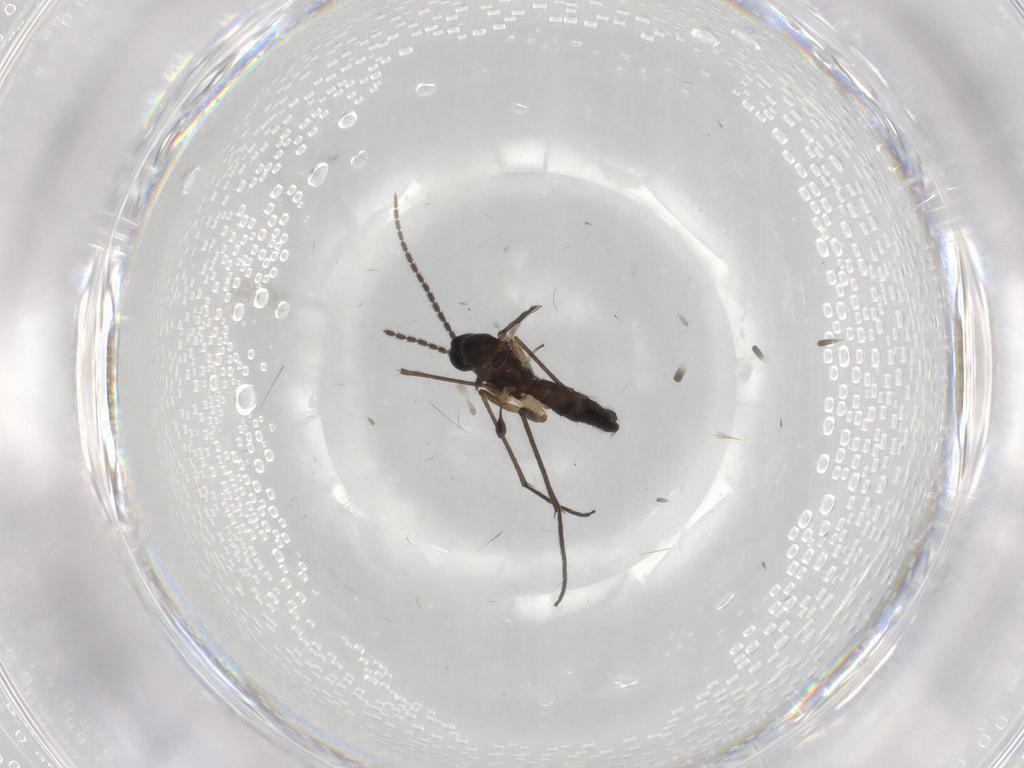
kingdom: Animalia
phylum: Arthropoda
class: Insecta
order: Diptera
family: Sciaridae
